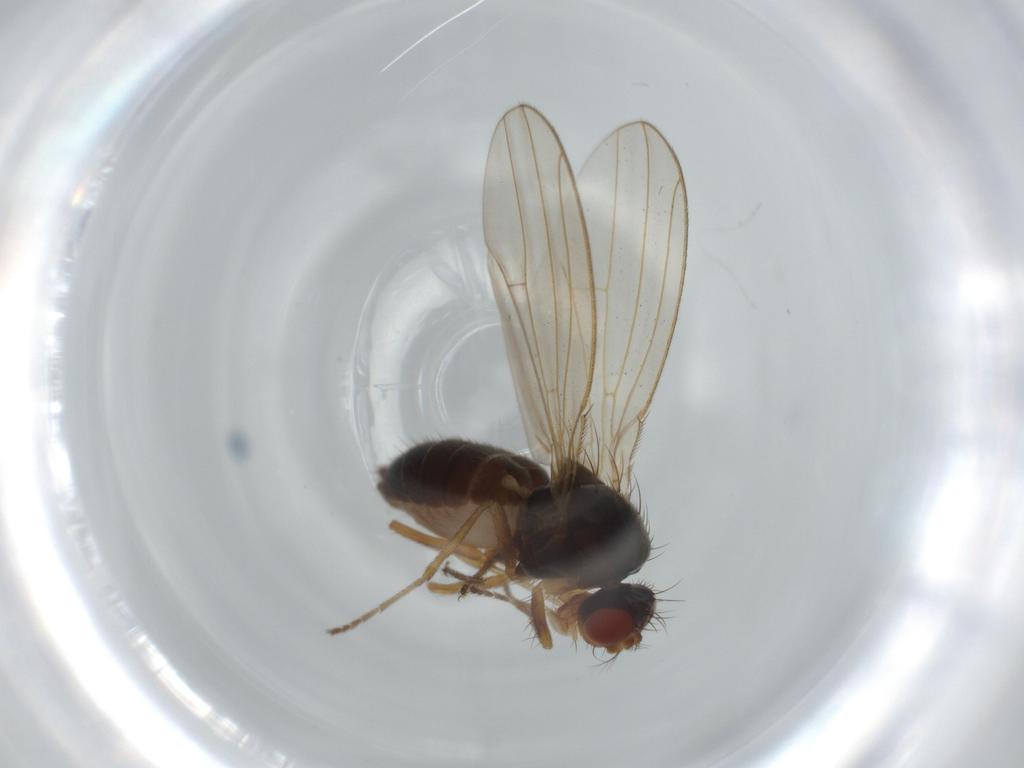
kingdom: Animalia
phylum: Arthropoda
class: Insecta
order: Diptera
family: Drosophilidae
